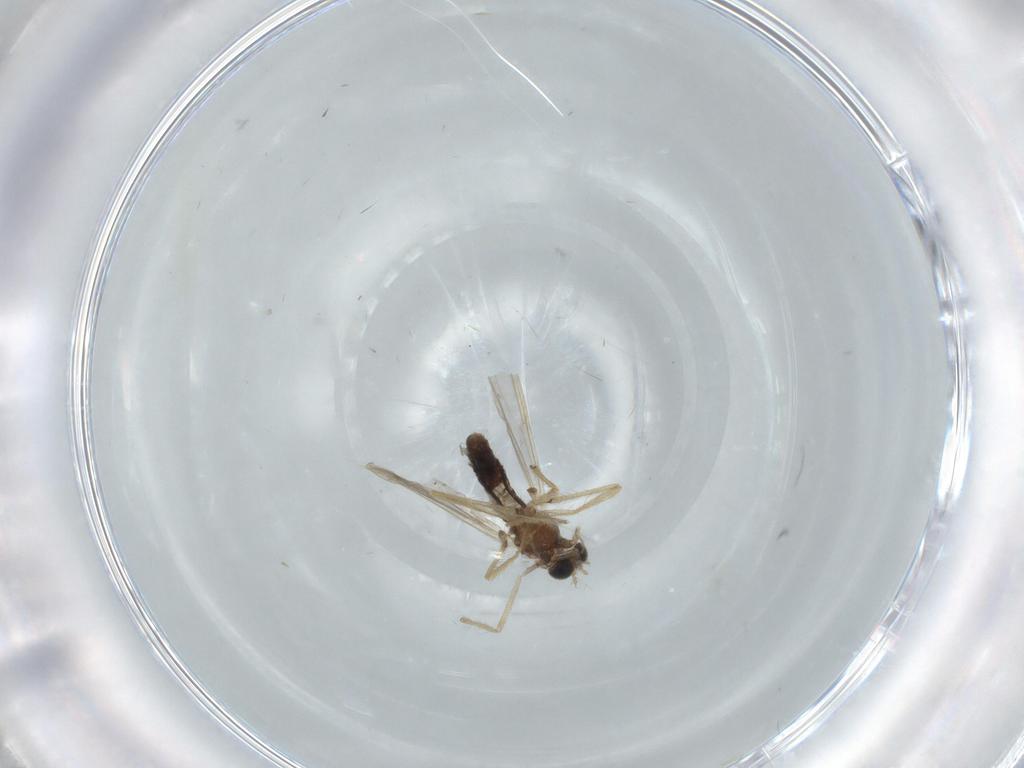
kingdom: Animalia
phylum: Arthropoda
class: Insecta
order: Diptera
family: Chironomidae
